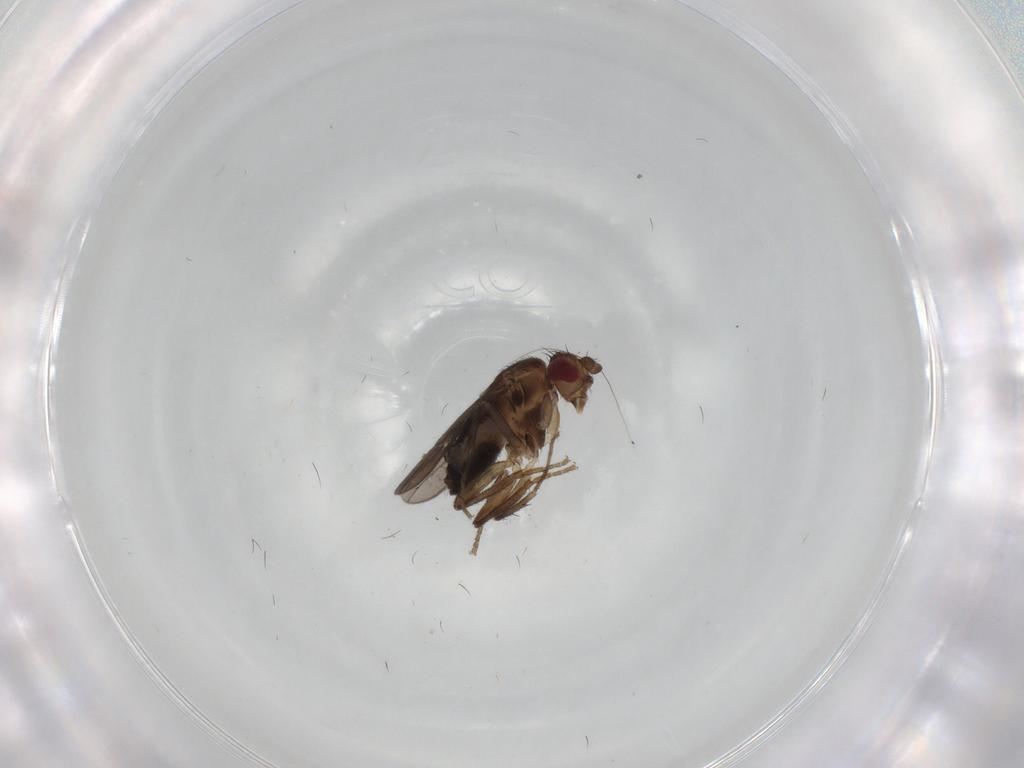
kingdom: Animalia
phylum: Arthropoda
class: Insecta
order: Diptera
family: Sphaeroceridae
